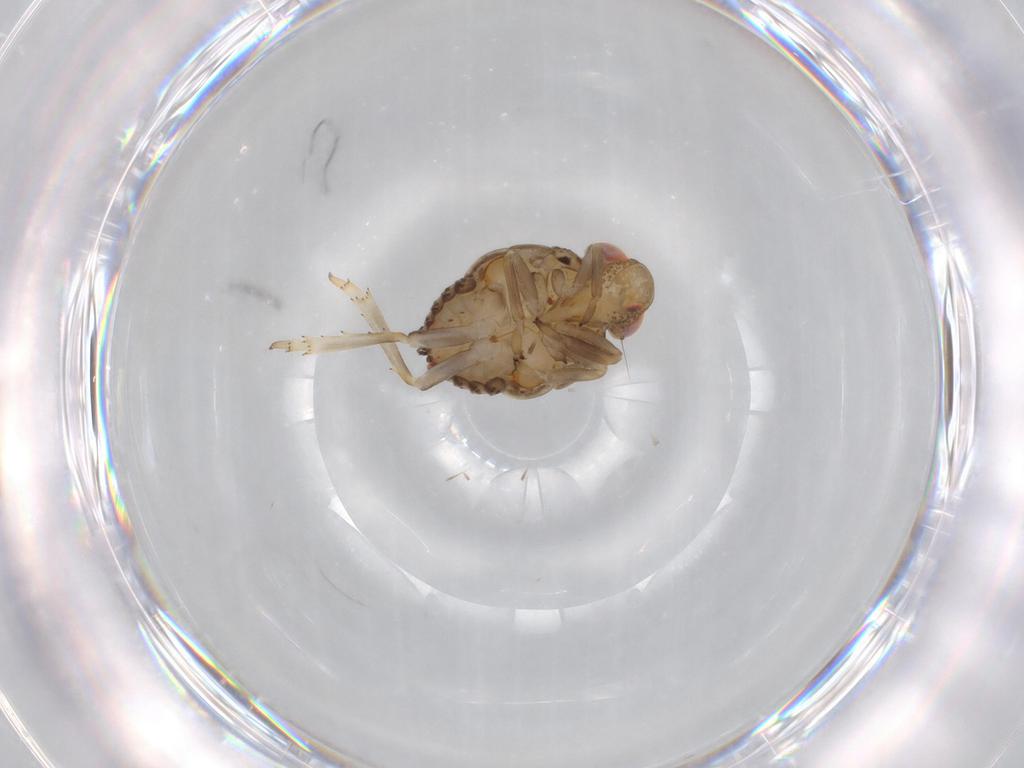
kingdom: Animalia
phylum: Arthropoda
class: Insecta
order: Hemiptera
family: Issidae
